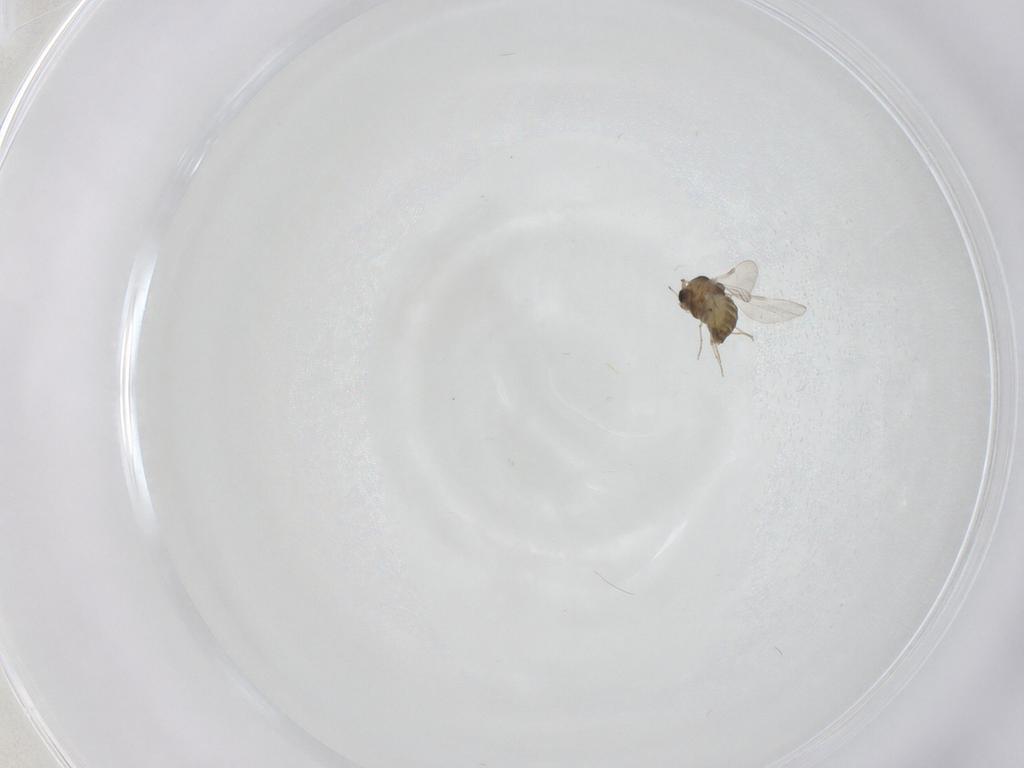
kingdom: Animalia
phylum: Arthropoda
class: Insecta
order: Diptera
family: Chironomidae
